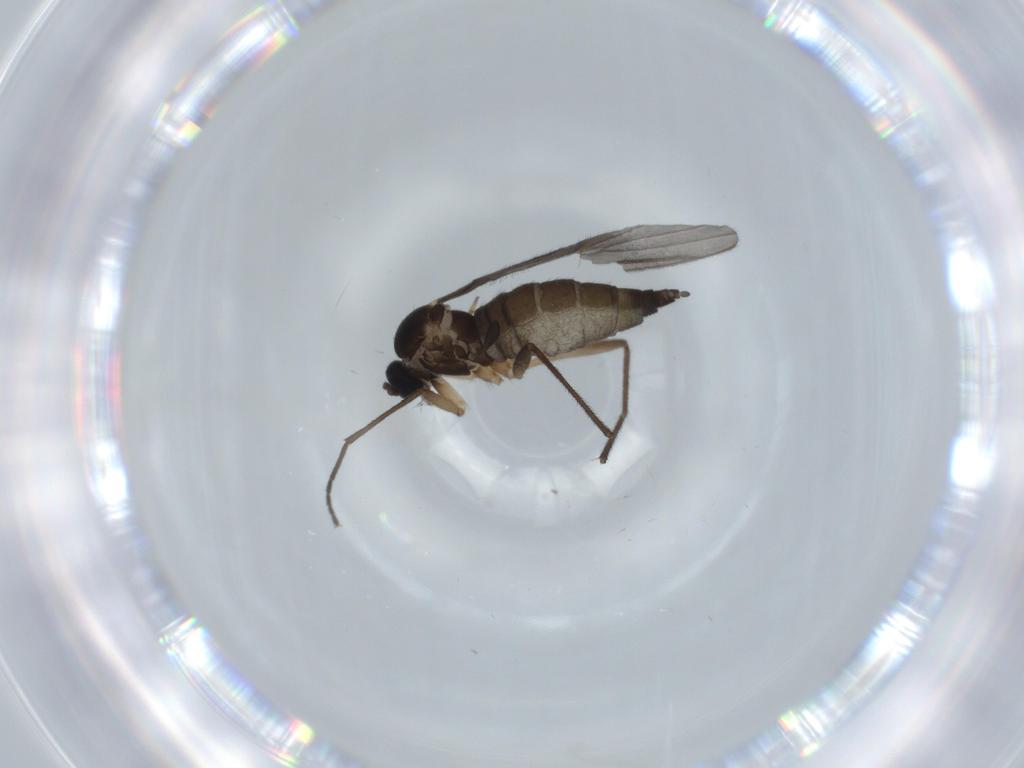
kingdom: Animalia
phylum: Arthropoda
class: Insecta
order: Diptera
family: Sciaridae
